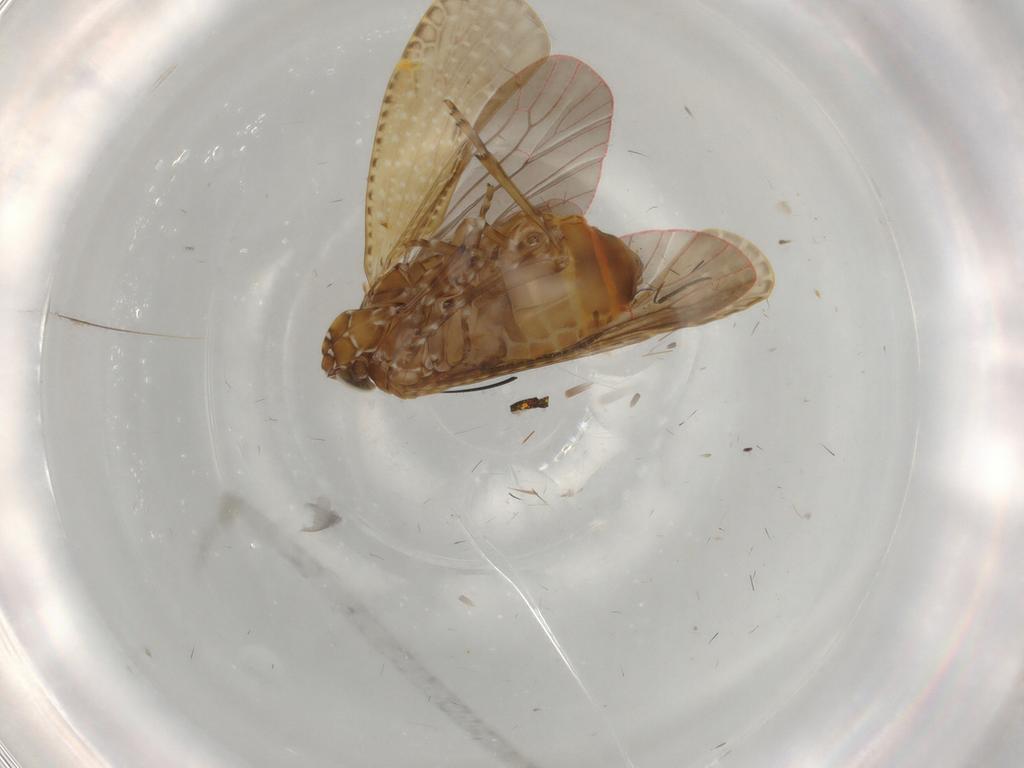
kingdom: Animalia
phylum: Arthropoda
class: Insecta
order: Hemiptera
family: Achilidae
